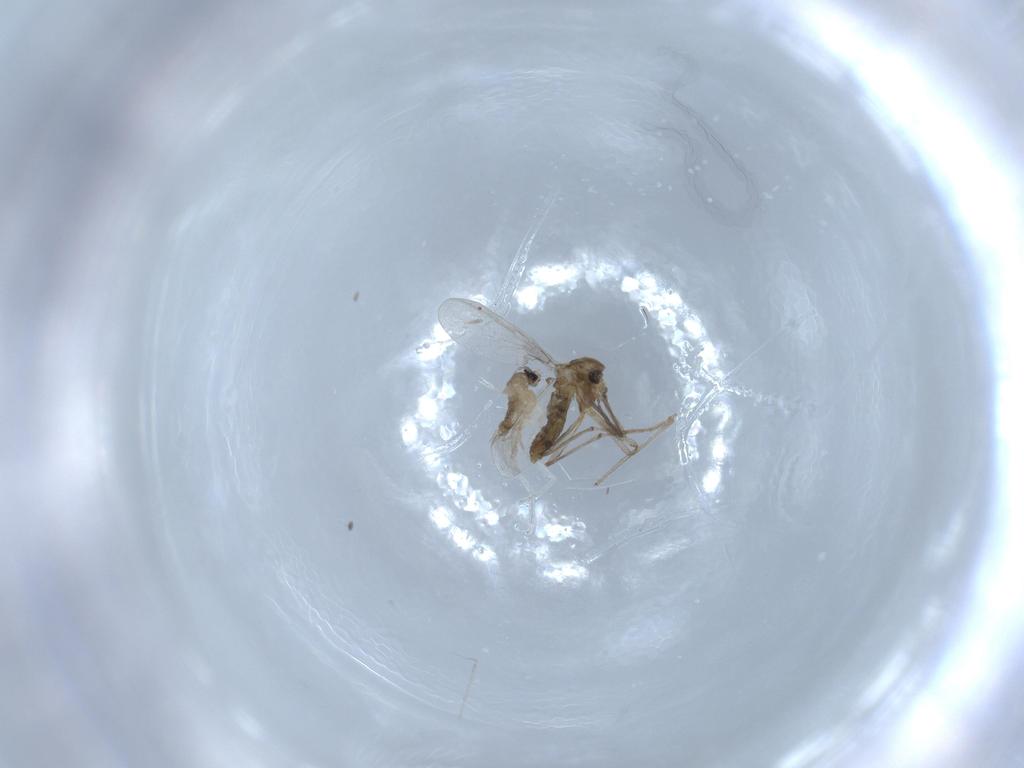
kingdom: Animalia
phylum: Arthropoda
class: Insecta
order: Diptera
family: Chironomidae
